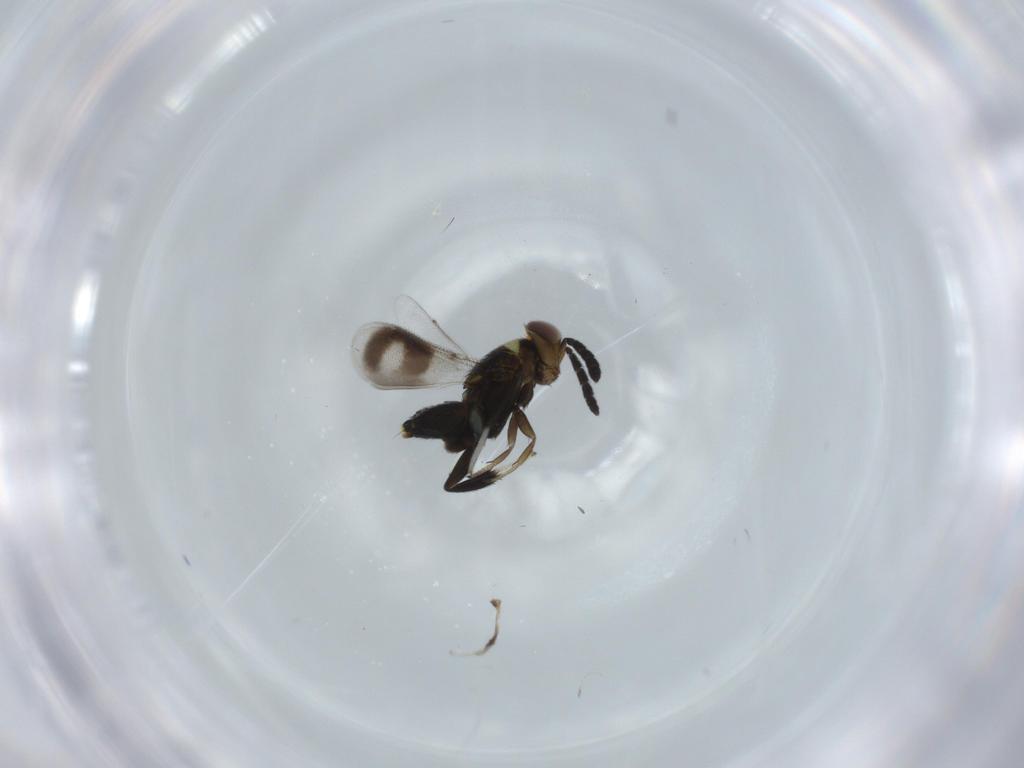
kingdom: Animalia
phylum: Arthropoda
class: Insecta
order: Hymenoptera
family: Aphelinidae
